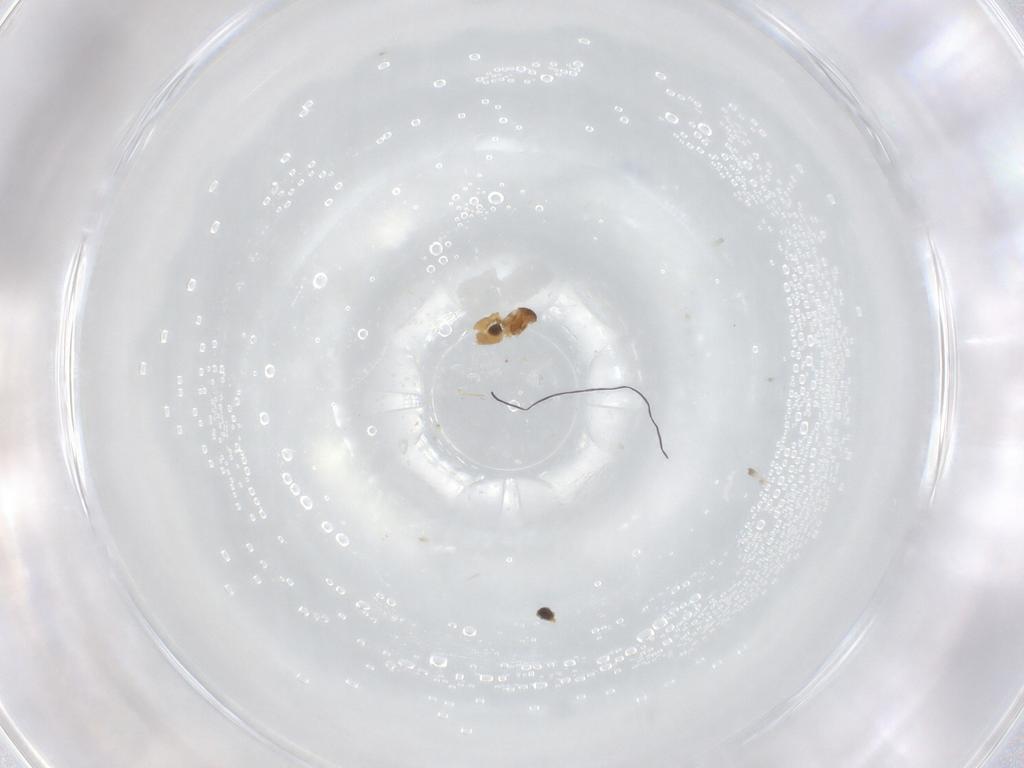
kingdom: Animalia
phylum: Arthropoda
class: Insecta
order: Diptera
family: Cecidomyiidae
